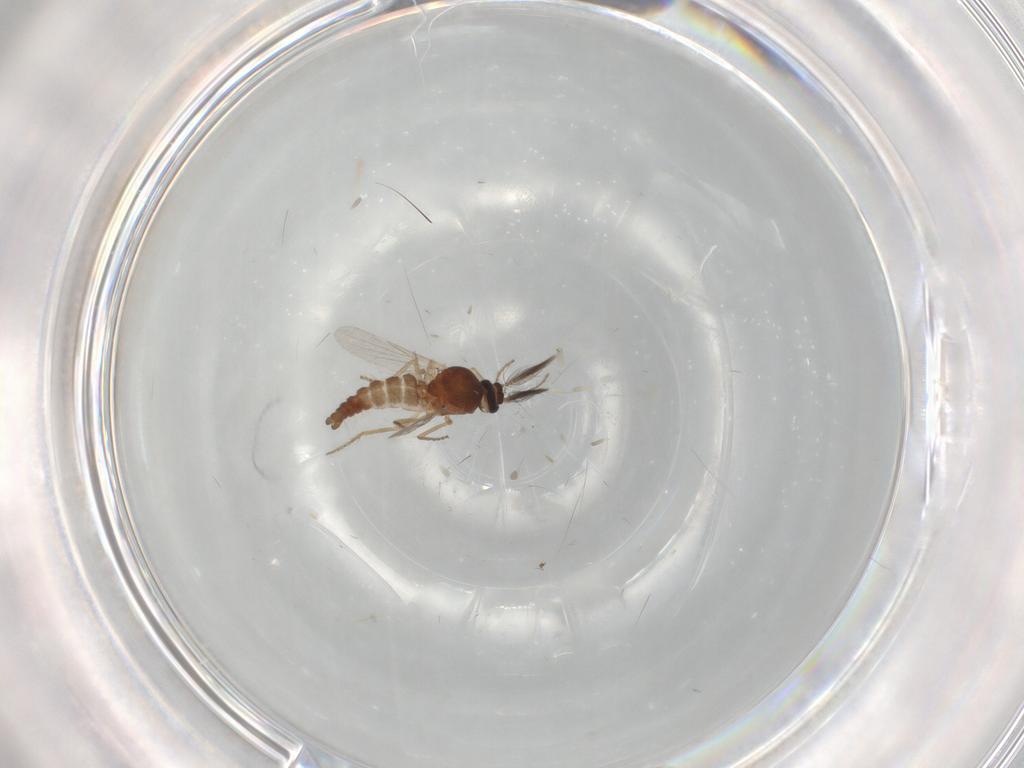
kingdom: Animalia
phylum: Arthropoda
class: Insecta
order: Diptera
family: Ceratopogonidae
